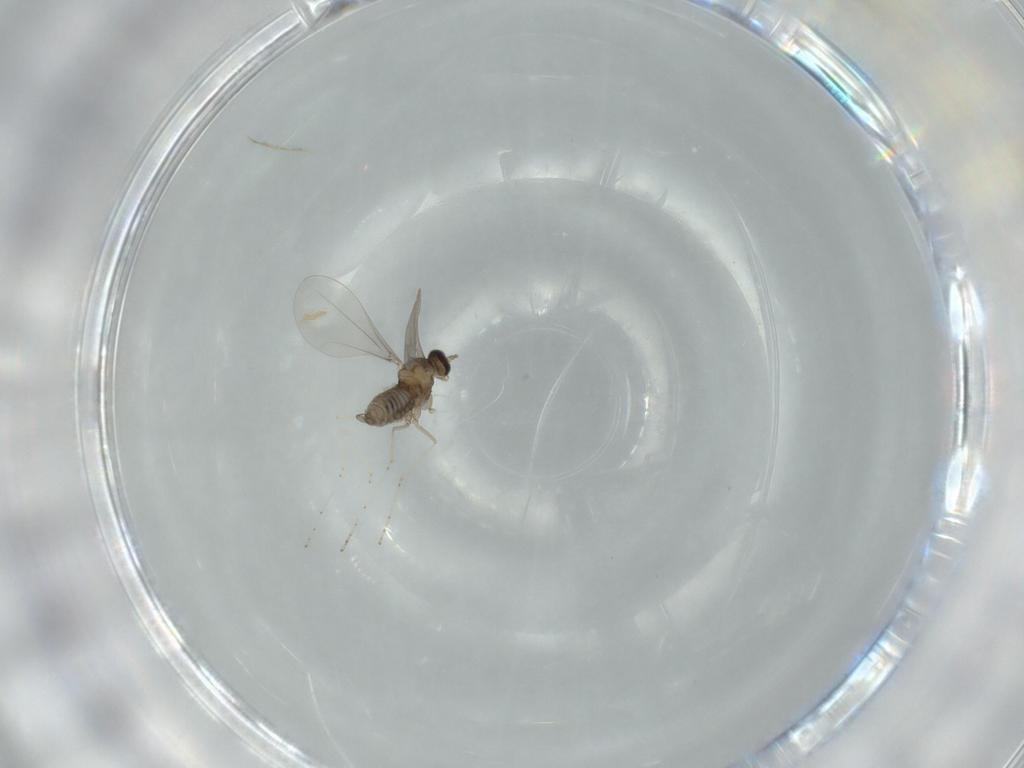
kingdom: Animalia
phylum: Arthropoda
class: Insecta
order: Diptera
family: Cecidomyiidae
